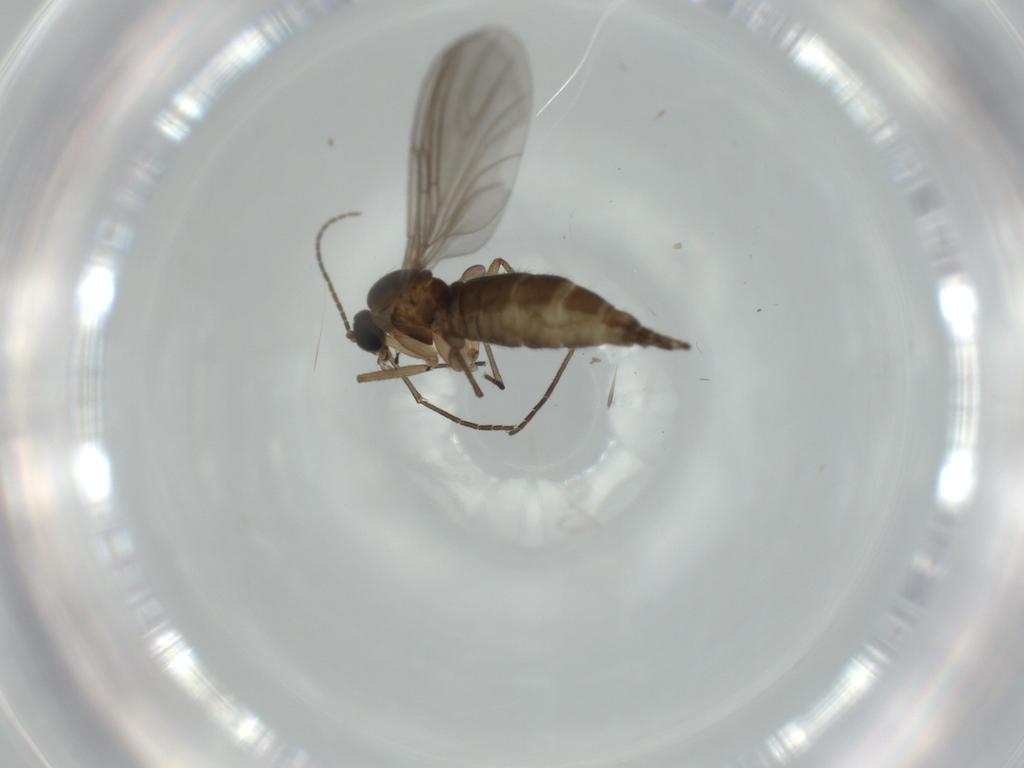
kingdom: Animalia
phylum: Arthropoda
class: Insecta
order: Diptera
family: Sciaridae
